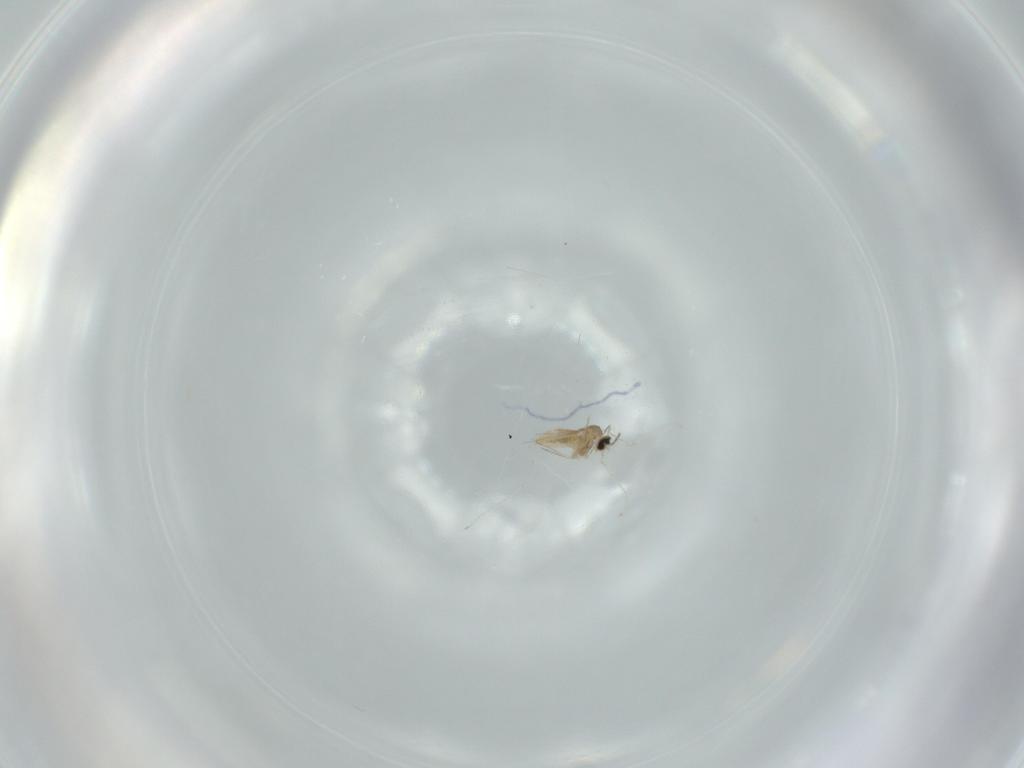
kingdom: Animalia
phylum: Arthropoda
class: Insecta
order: Diptera
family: Cecidomyiidae
